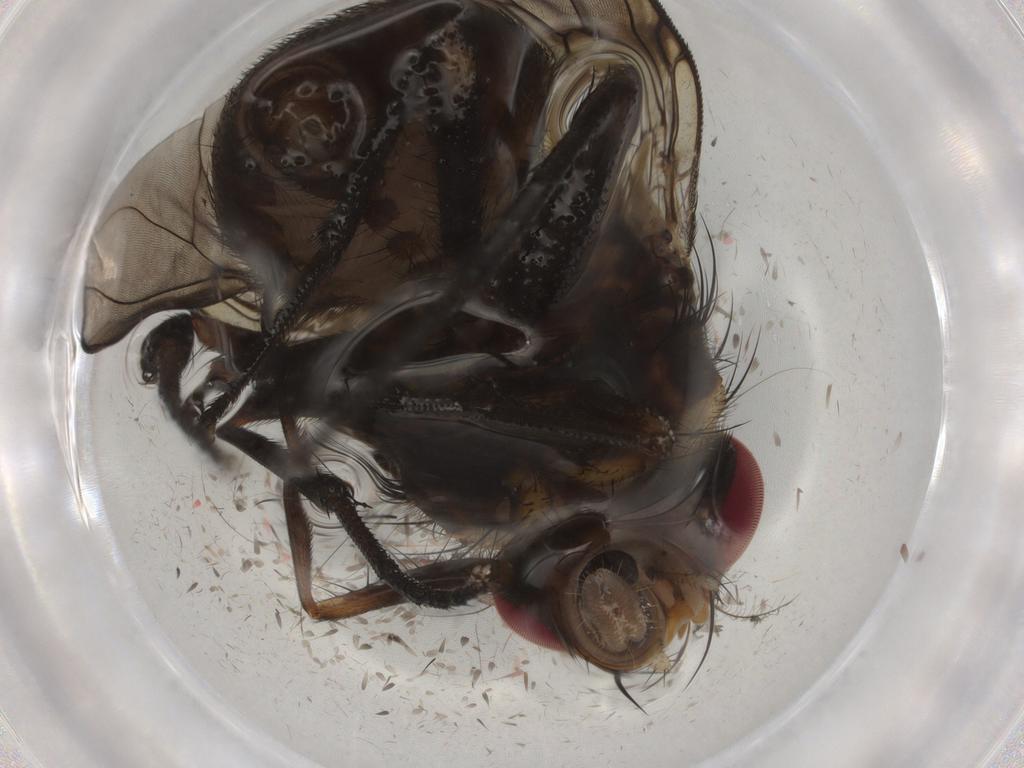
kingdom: Animalia
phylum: Arthropoda
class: Insecta
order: Diptera
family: Muscidae
